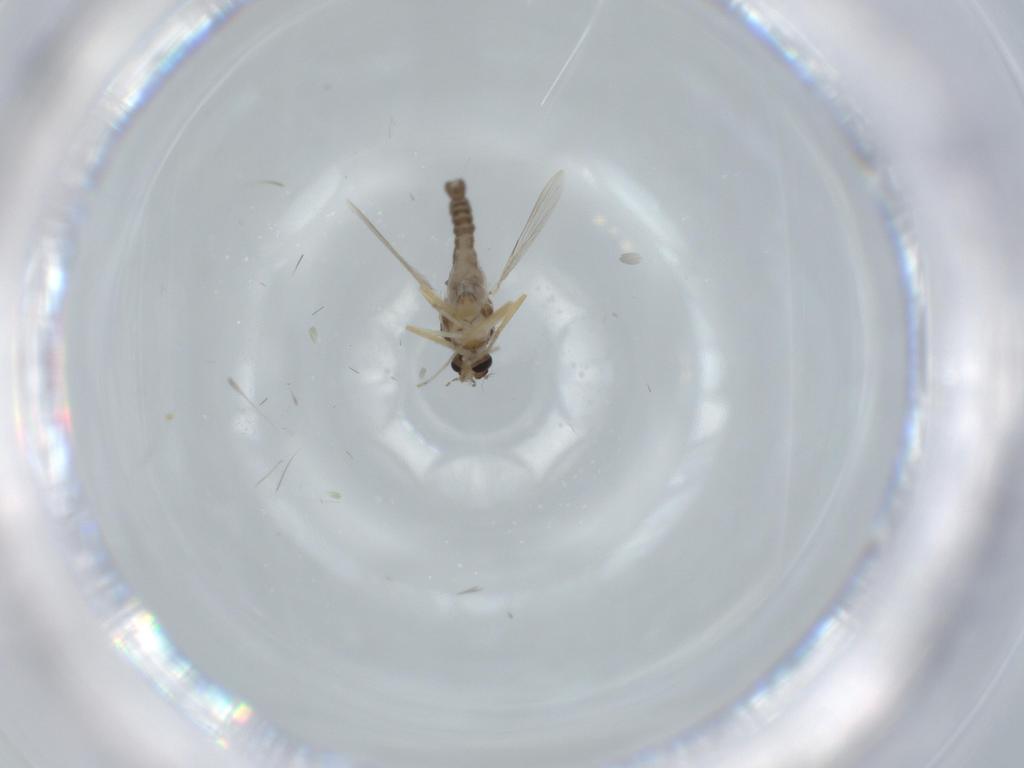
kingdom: Animalia
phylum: Arthropoda
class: Insecta
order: Diptera
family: Ceratopogonidae
